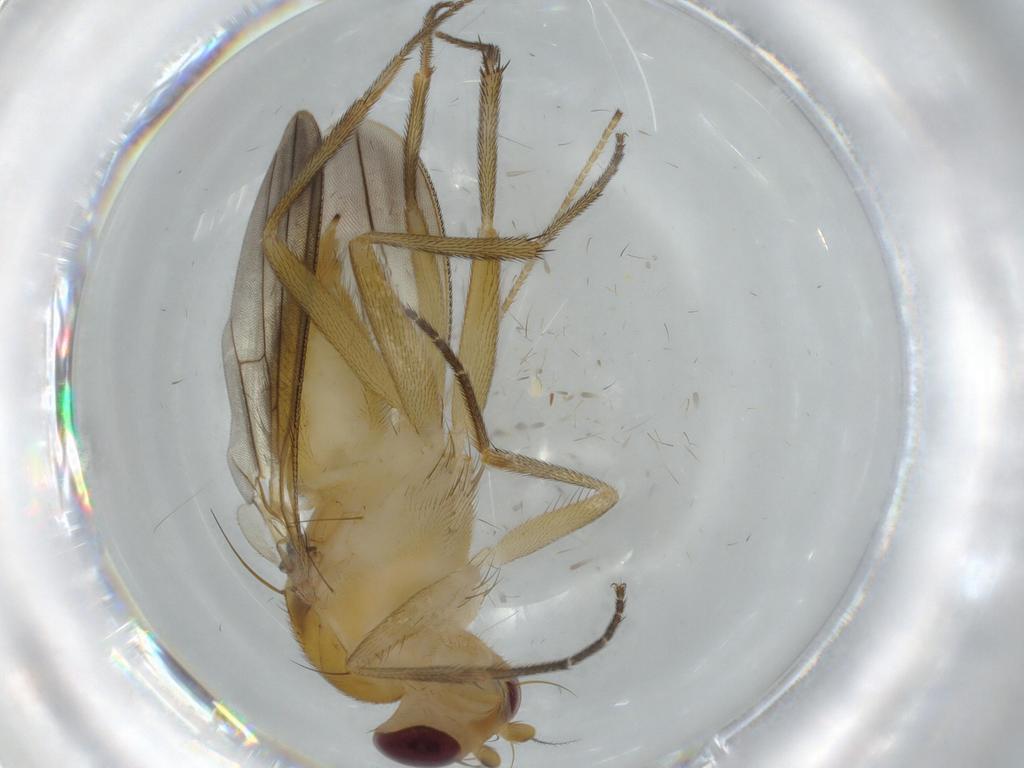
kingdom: Animalia
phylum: Arthropoda
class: Insecta
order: Diptera
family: Ceratopogonidae
